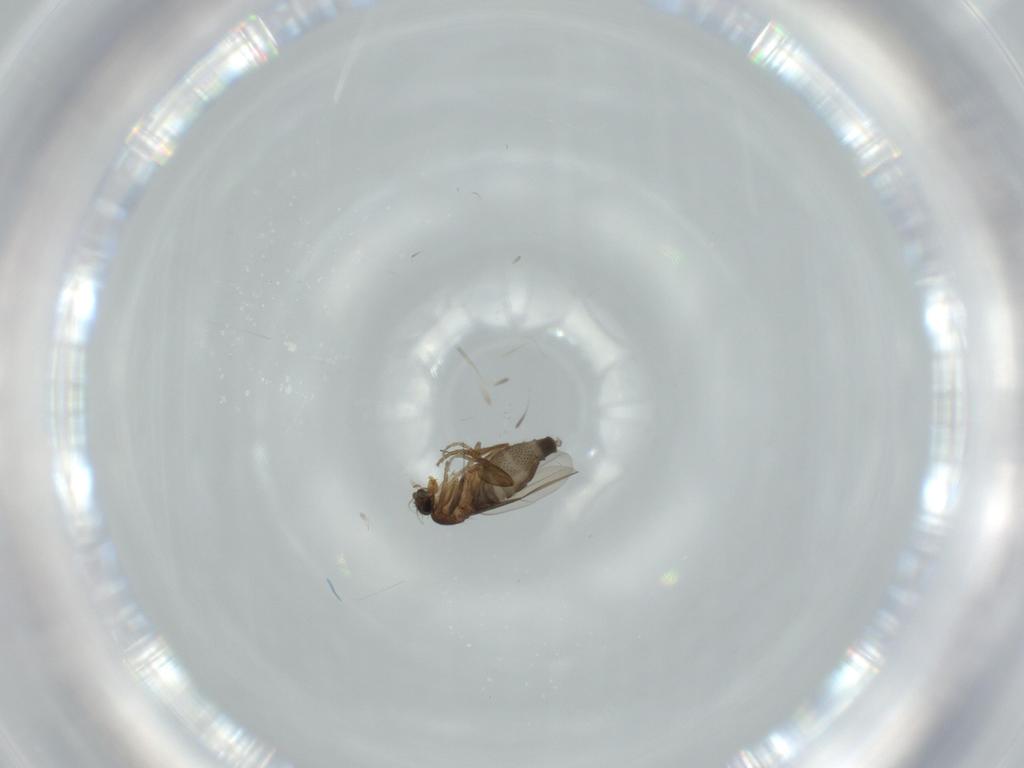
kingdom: Animalia
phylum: Arthropoda
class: Insecta
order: Diptera
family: Phoridae
